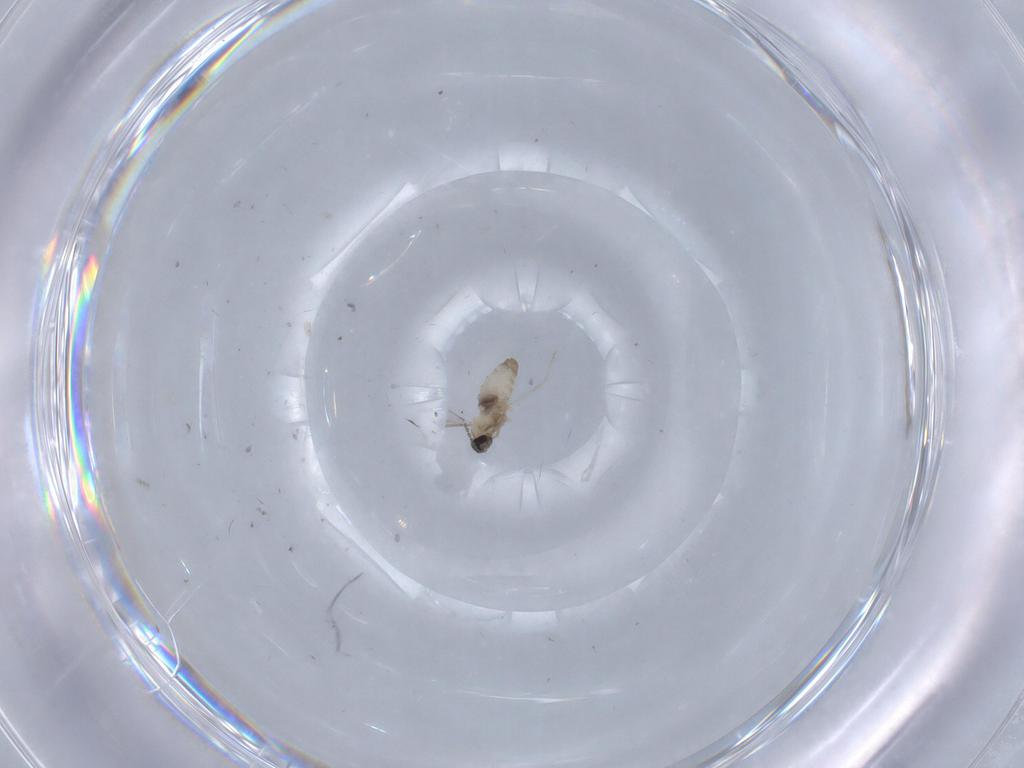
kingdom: Animalia
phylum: Arthropoda
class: Insecta
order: Diptera
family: Cecidomyiidae
